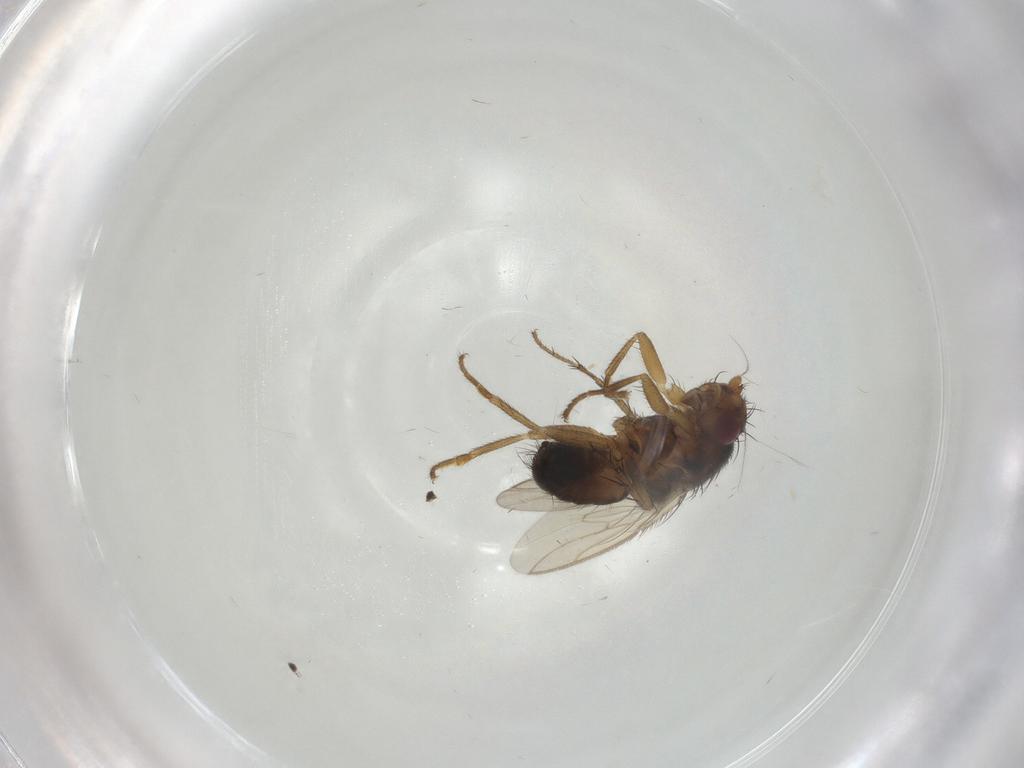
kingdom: Animalia
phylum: Arthropoda
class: Insecta
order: Diptera
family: Sphaeroceridae
